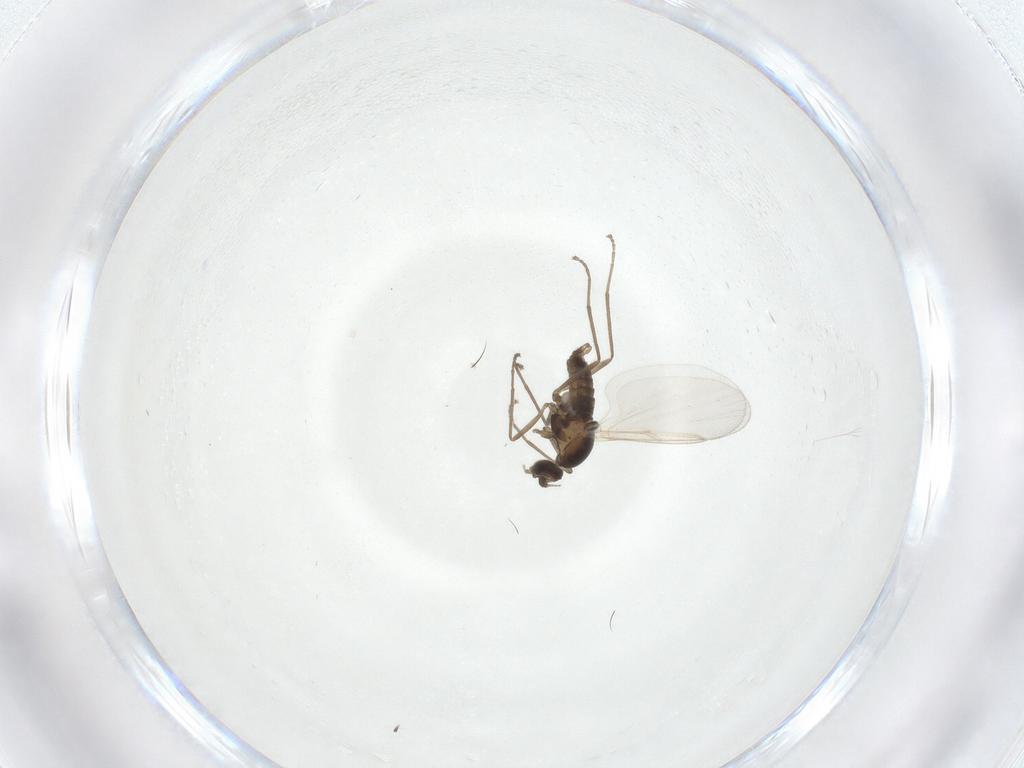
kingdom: Animalia
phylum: Arthropoda
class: Insecta
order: Diptera
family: Cecidomyiidae
